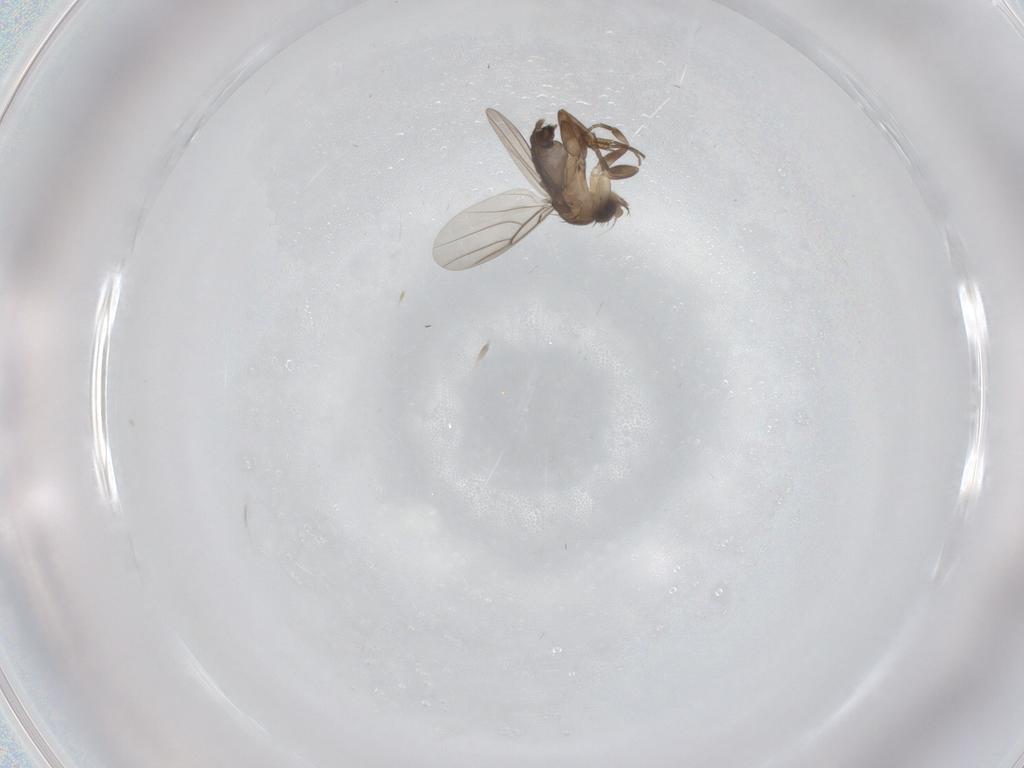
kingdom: Animalia
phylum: Arthropoda
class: Insecta
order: Diptera
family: Phoridae
